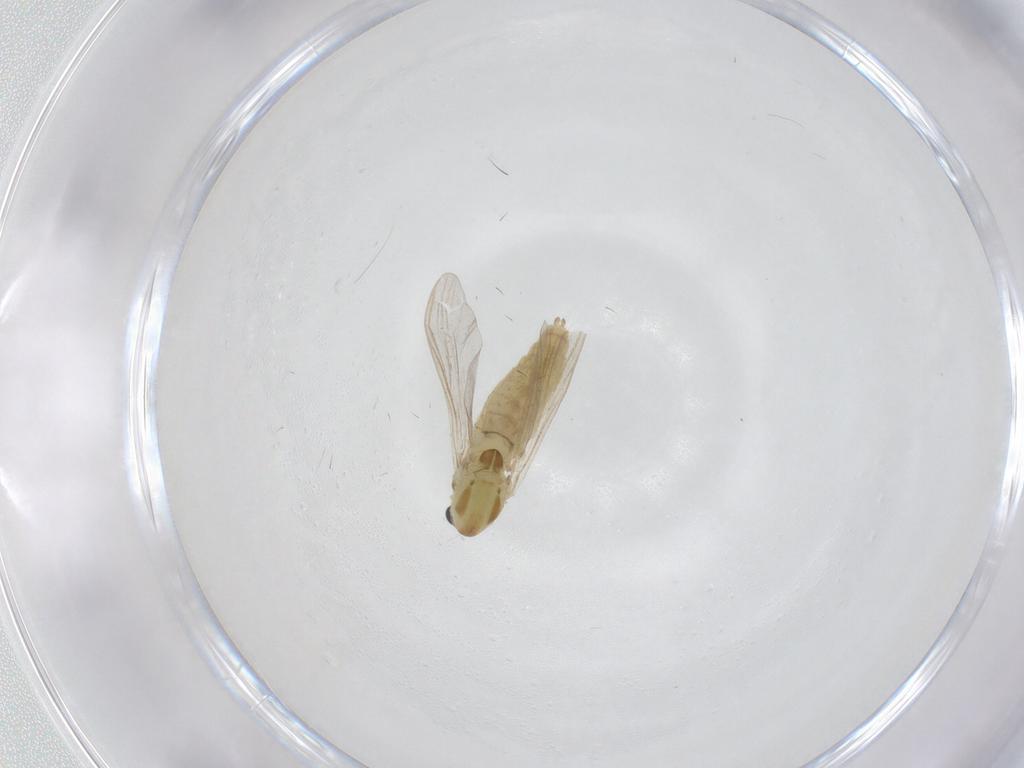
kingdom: Animalia
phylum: Arthropoda
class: Insecta
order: Diptera
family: Chironomidae
